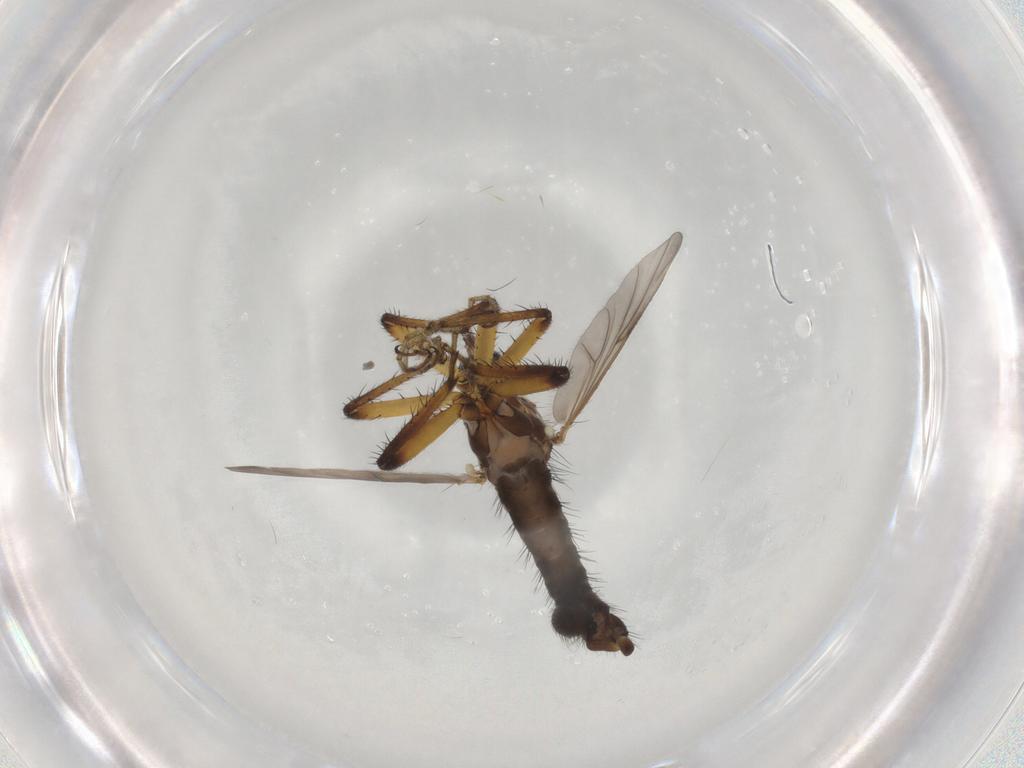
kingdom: Animalia
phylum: Arthropoda
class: Insecta
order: Diptera
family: Ceratopogonidae
